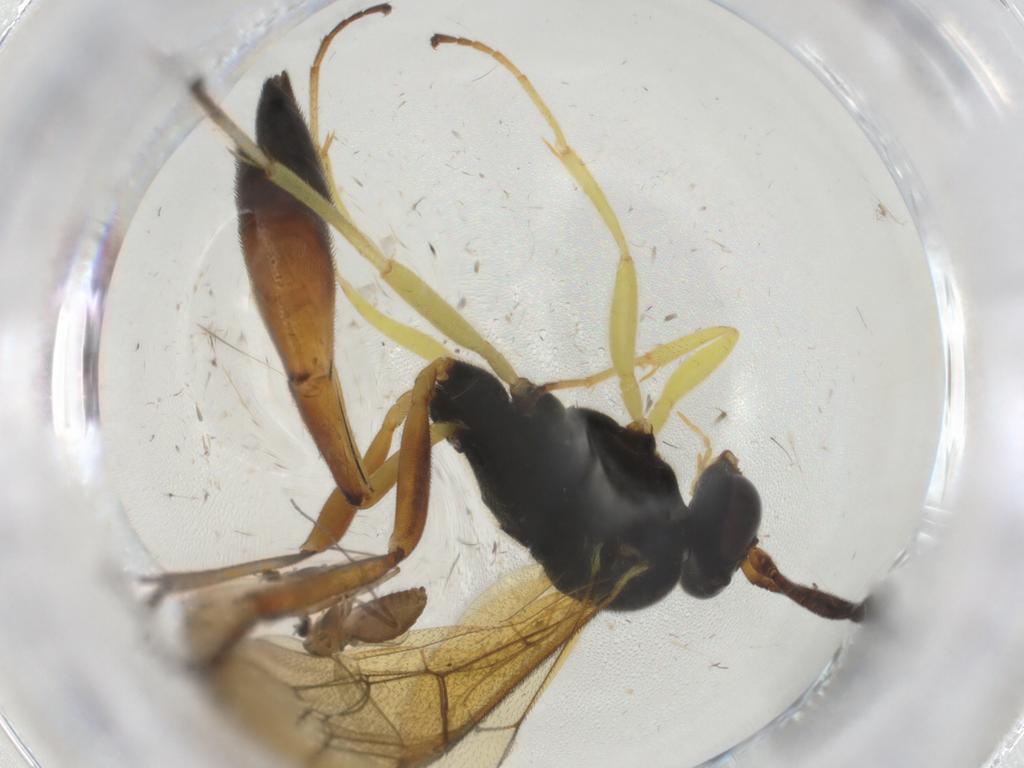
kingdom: Animalia
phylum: Arthropoda
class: Insecta
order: Diptera
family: Chironomidae
